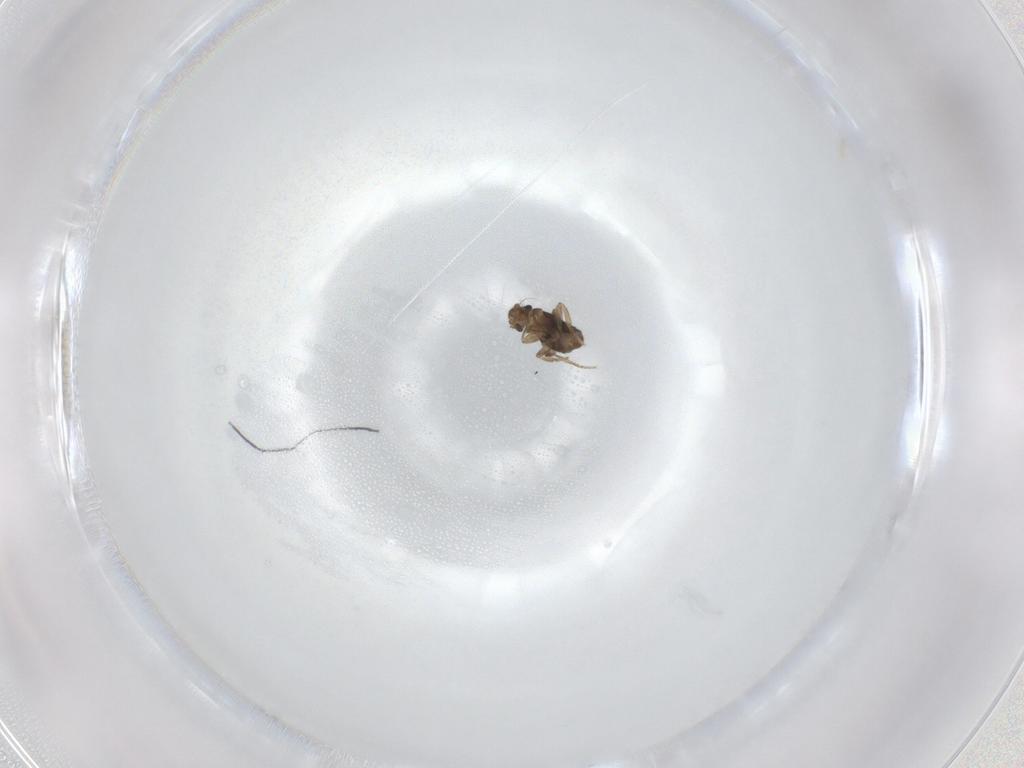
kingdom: Animalia
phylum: Arthropoda
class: Insecta
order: Diptera
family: Phoridae
